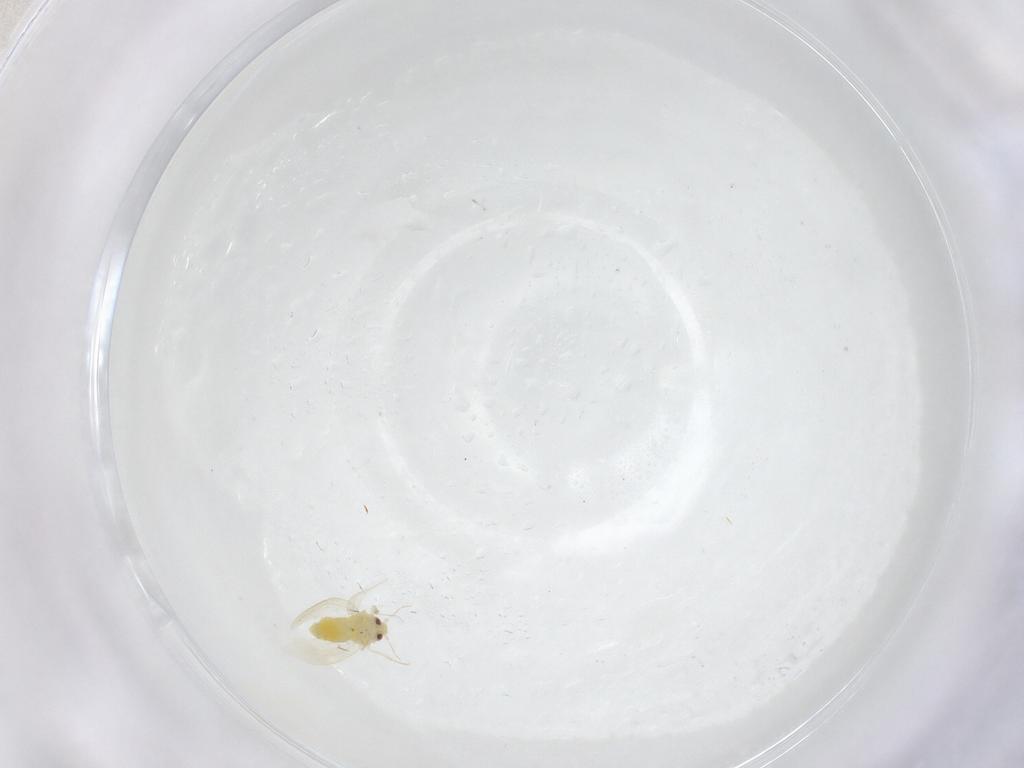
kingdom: Animalia
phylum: Arthropoda
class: Insecta
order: Hemiptera
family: Aleyrodidae
